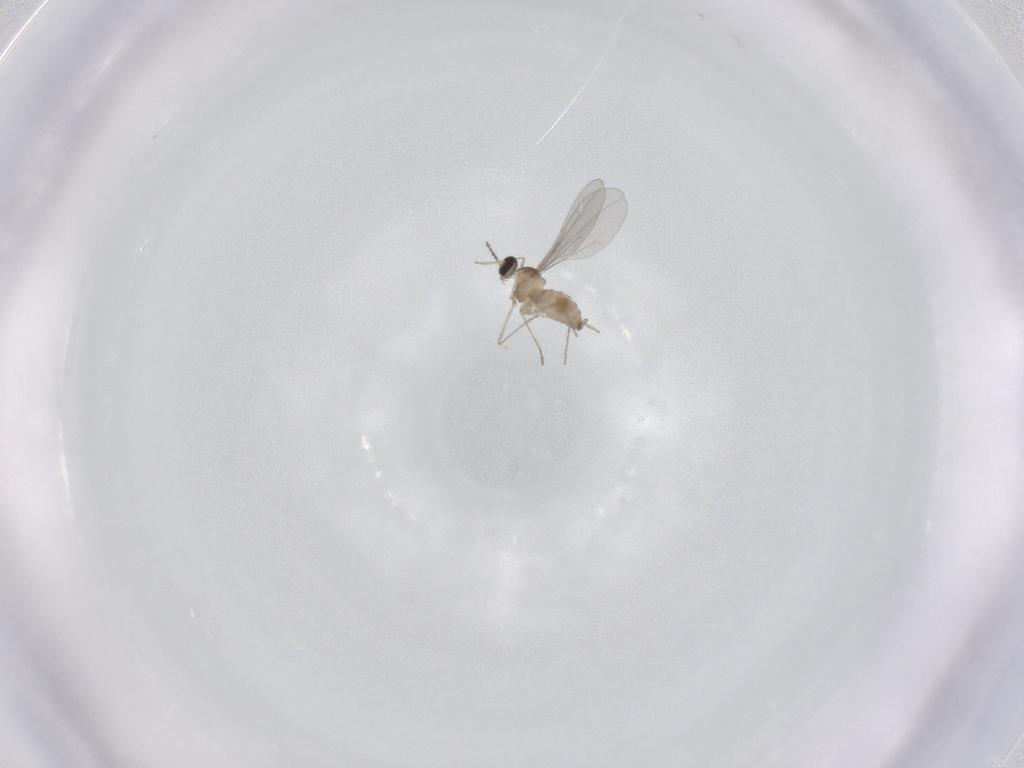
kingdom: Animalia
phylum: Arthropoda
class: Insecta
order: Diptera
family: Cecidomyiidae
